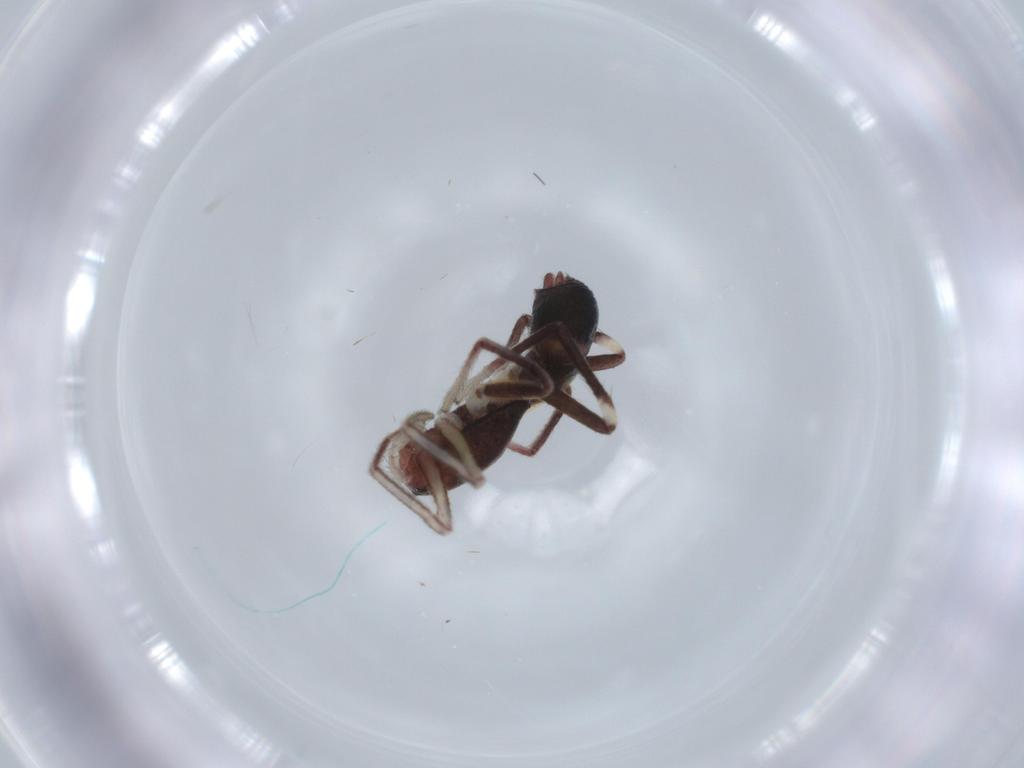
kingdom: Animalia
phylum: Arthropoda
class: Arachnida
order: Araneae
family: Corinnidae
